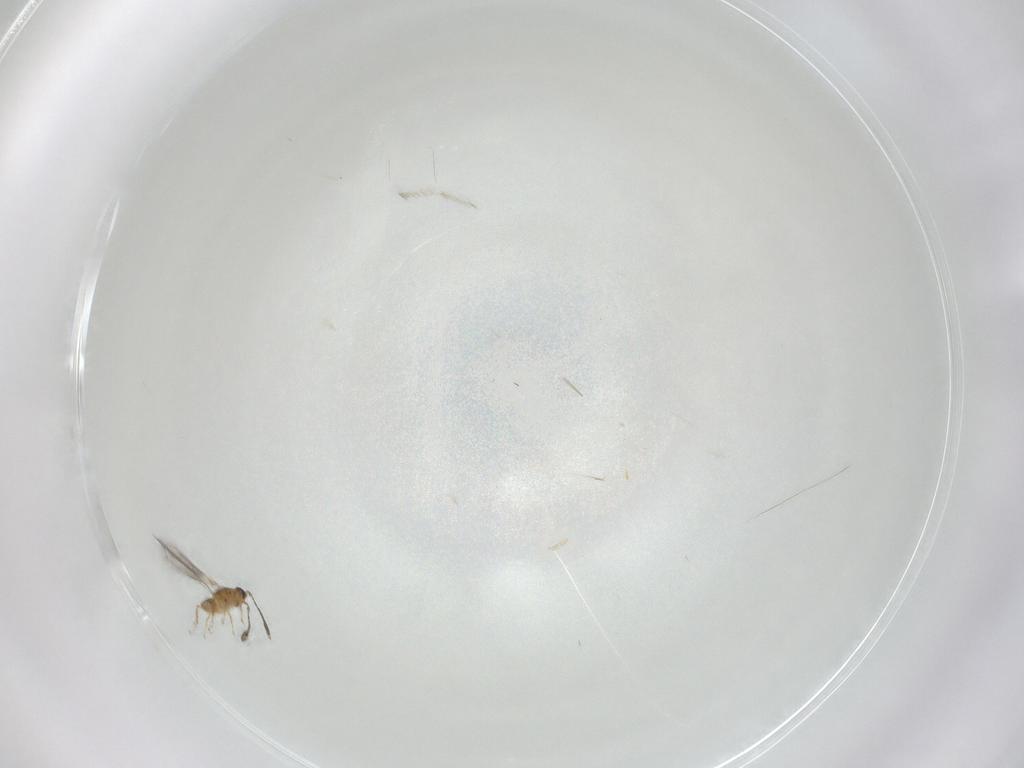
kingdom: Animalia
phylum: Arthropoda
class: Insecta
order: Hymenoptera
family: Mymaridae
